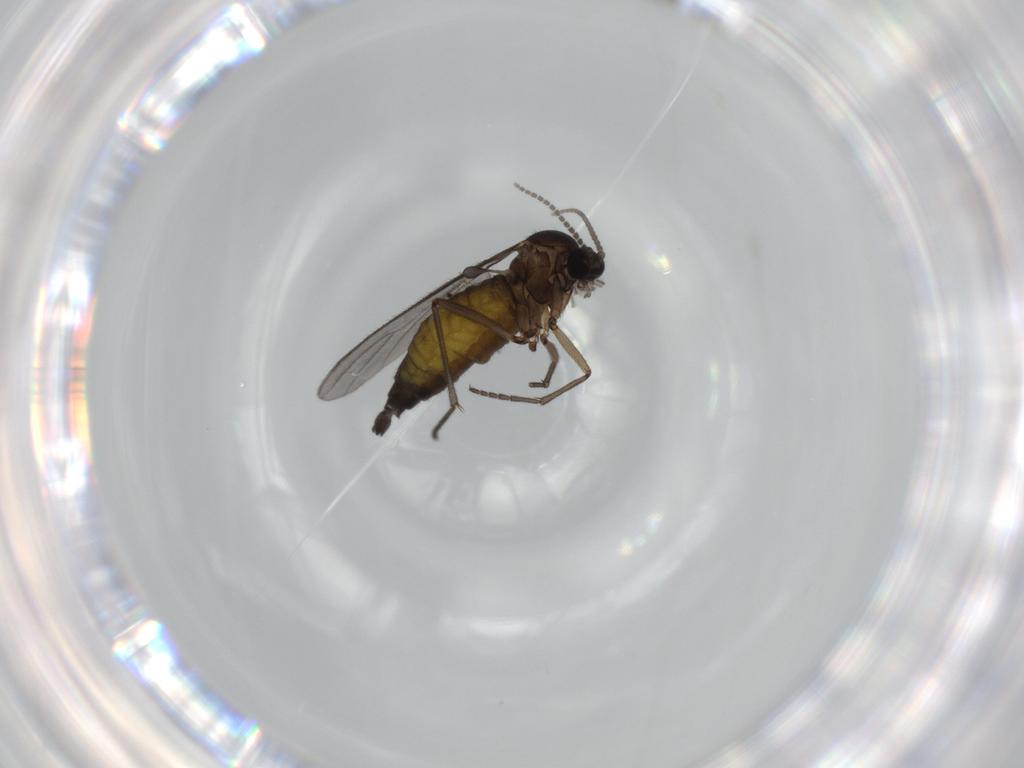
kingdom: Animalia
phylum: Arthropoda
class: Insecta
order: Diptera
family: Sciaridae
